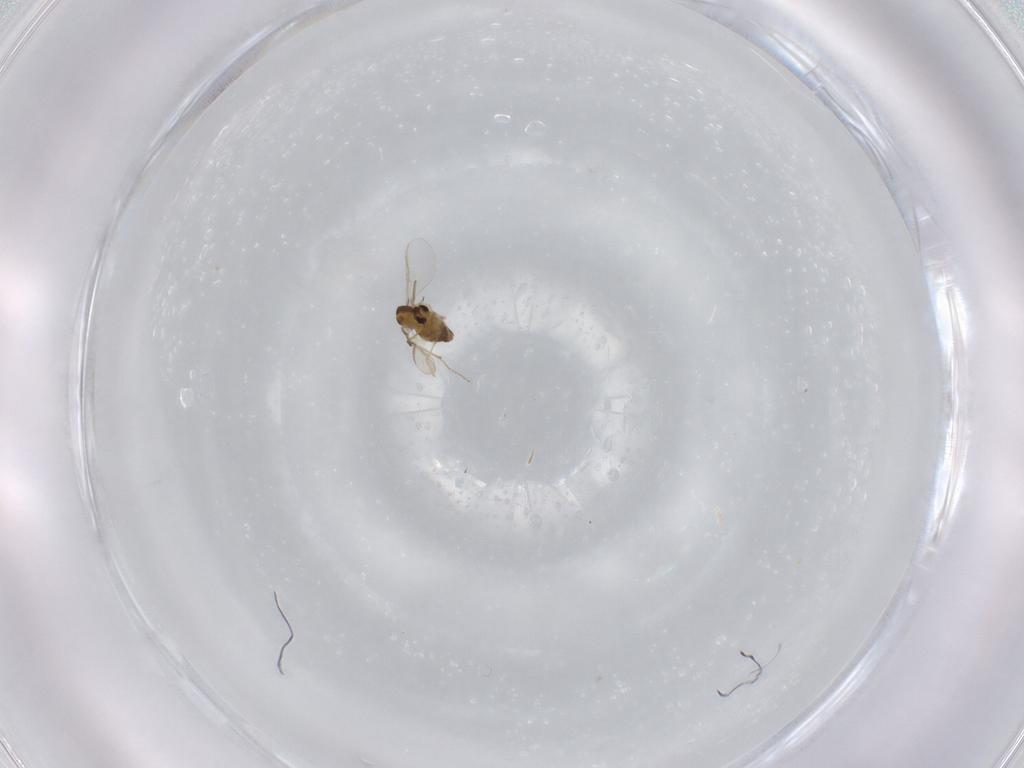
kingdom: Animalia
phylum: Arthropoda
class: Insecta
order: Diptera
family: Chironomidae
